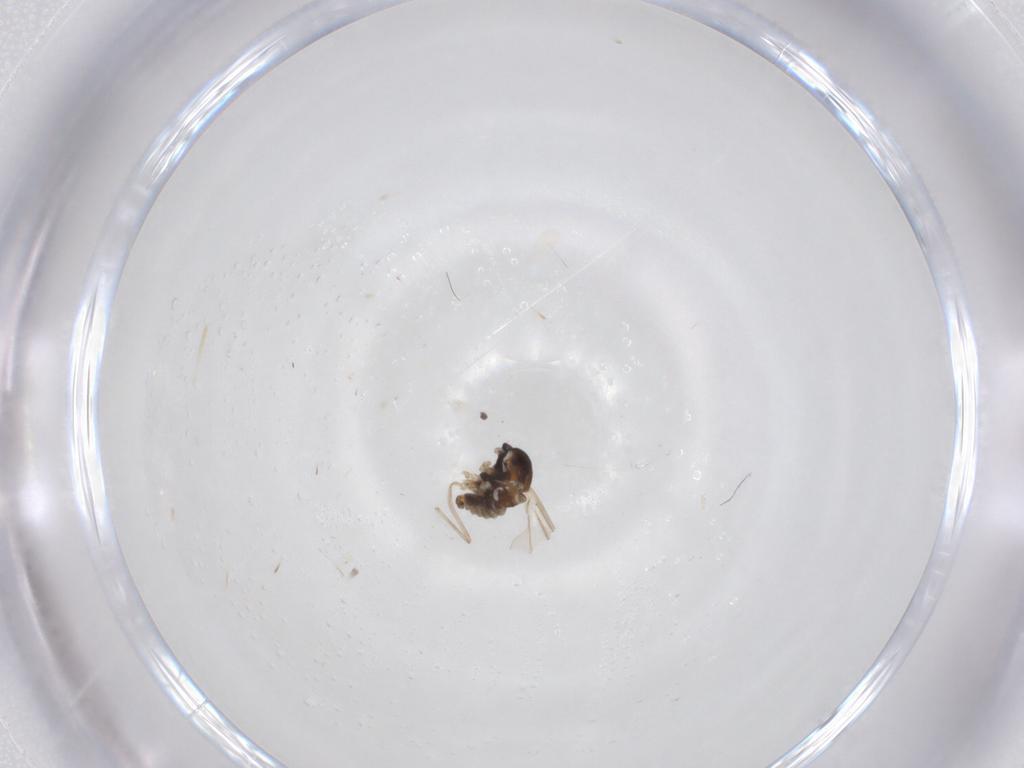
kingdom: Animalia
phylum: Arthropoda
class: Insecta
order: Diptera
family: Cecidomyiidae
